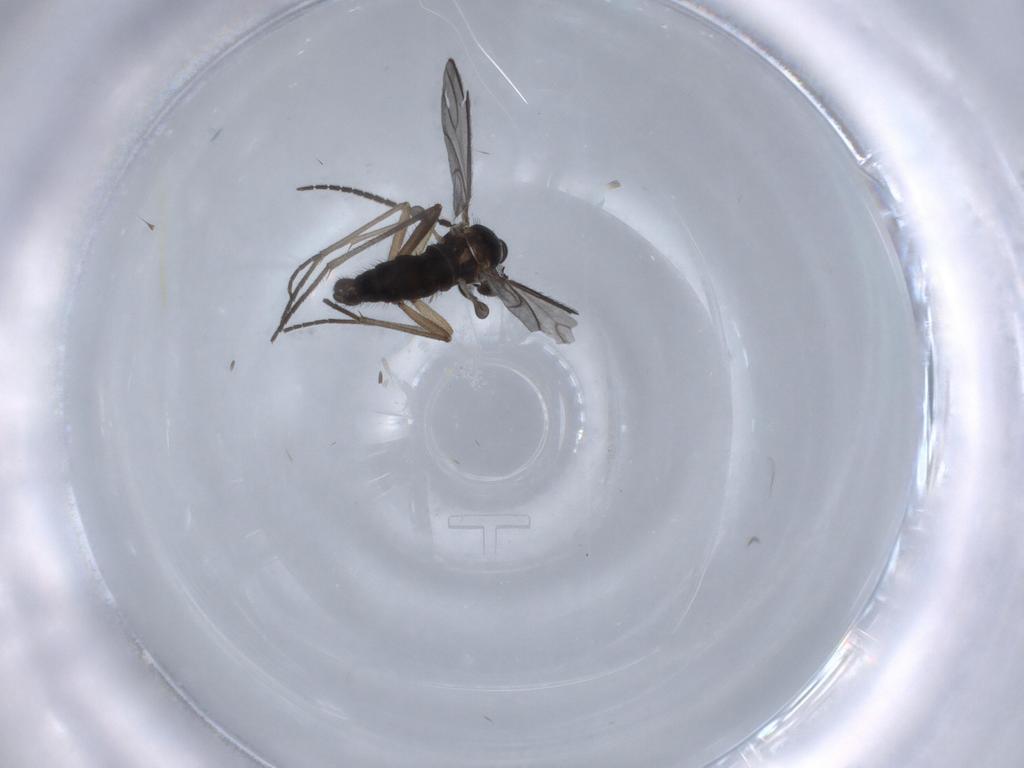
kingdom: Animalia
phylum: Arthropoda
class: Insecta
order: Diptera
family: Sciaridae
